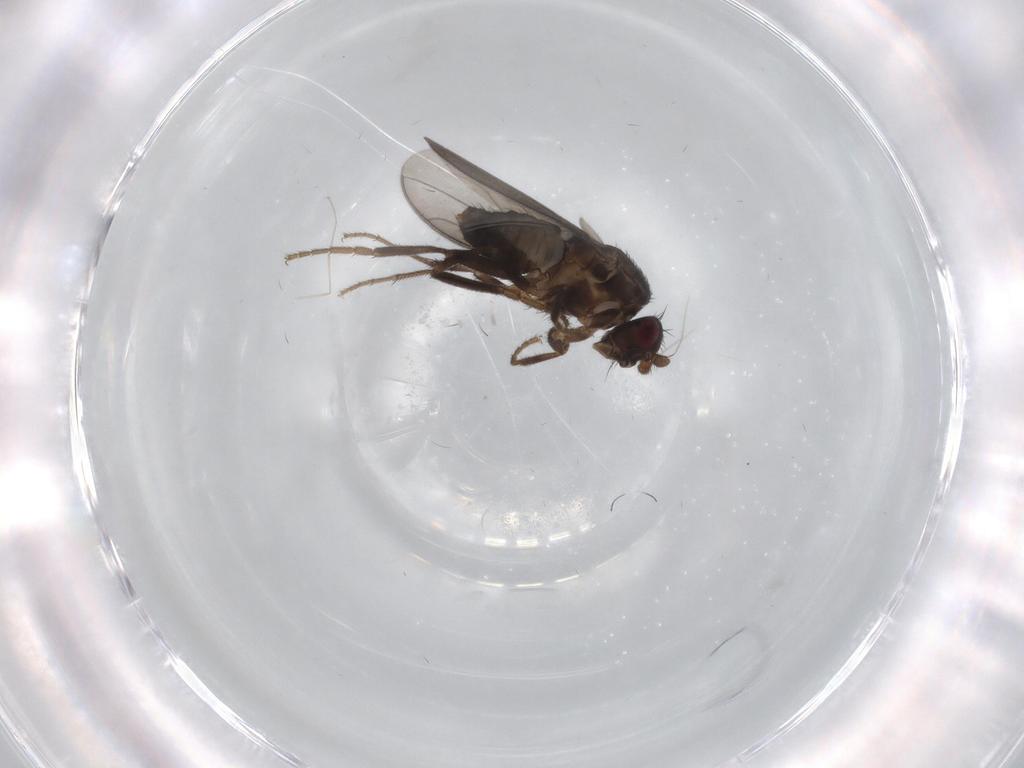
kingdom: Animalia
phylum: Arthropoda
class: Insecta
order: Diptera
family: Sphaeroceridae
